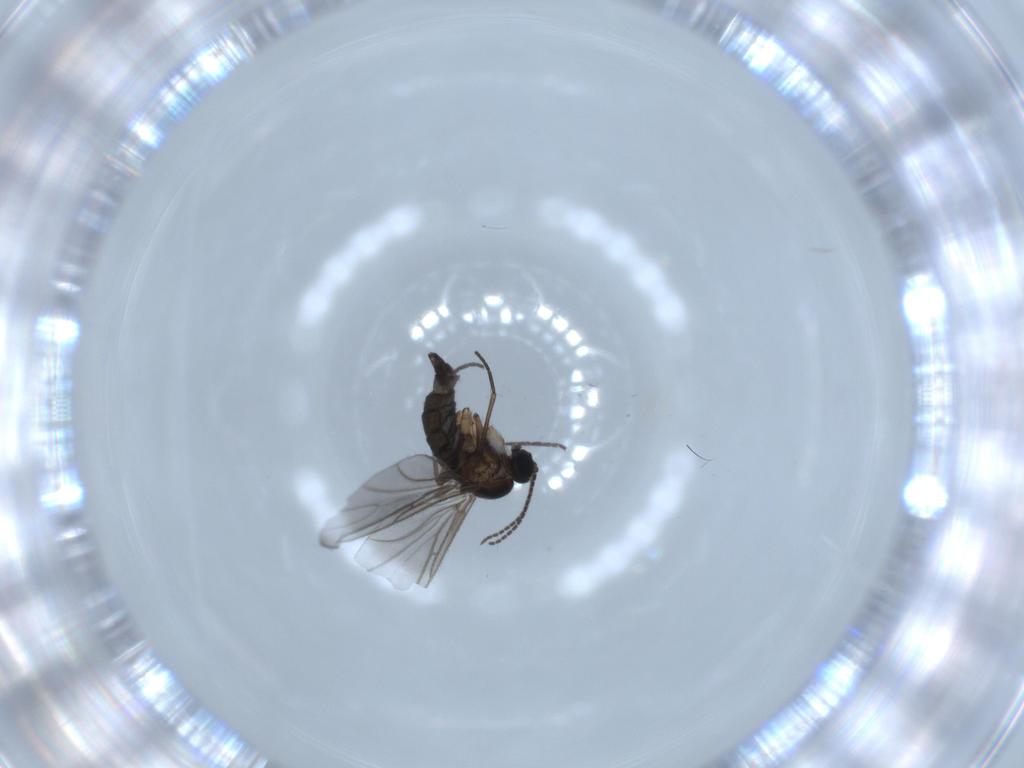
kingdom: Animalia
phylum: Arthropoda
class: Insecta
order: Diptera
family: Sciaridae
